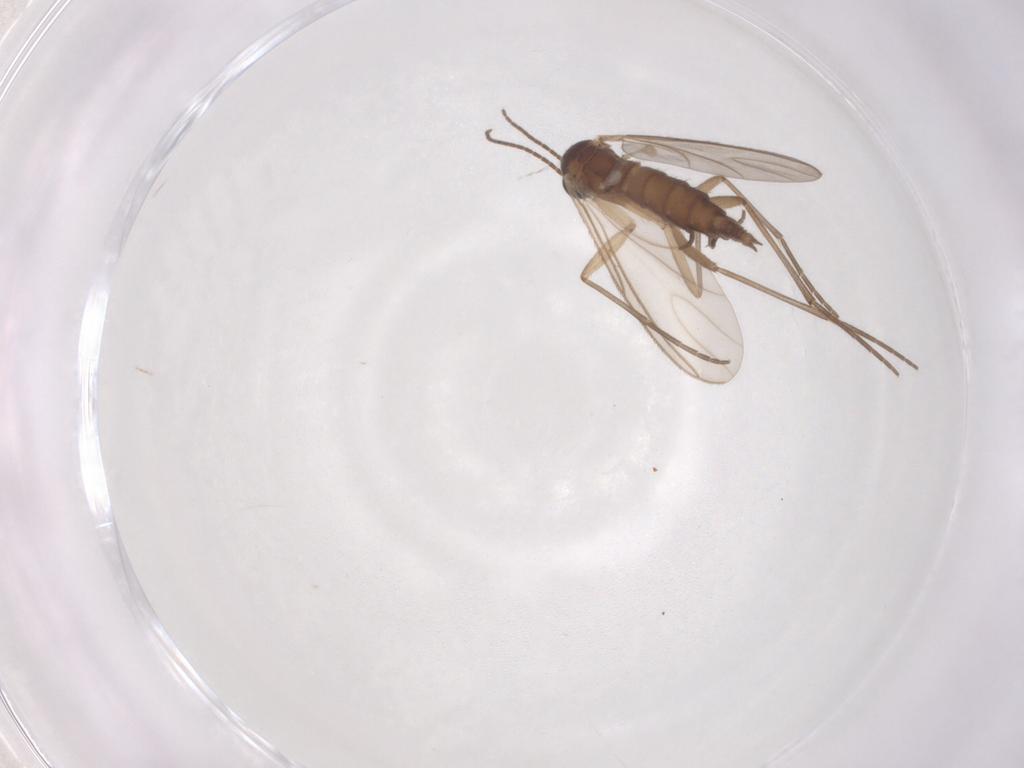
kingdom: Animalia
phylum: Arthropoda
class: Insecta
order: Diptera
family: Sciaridae
